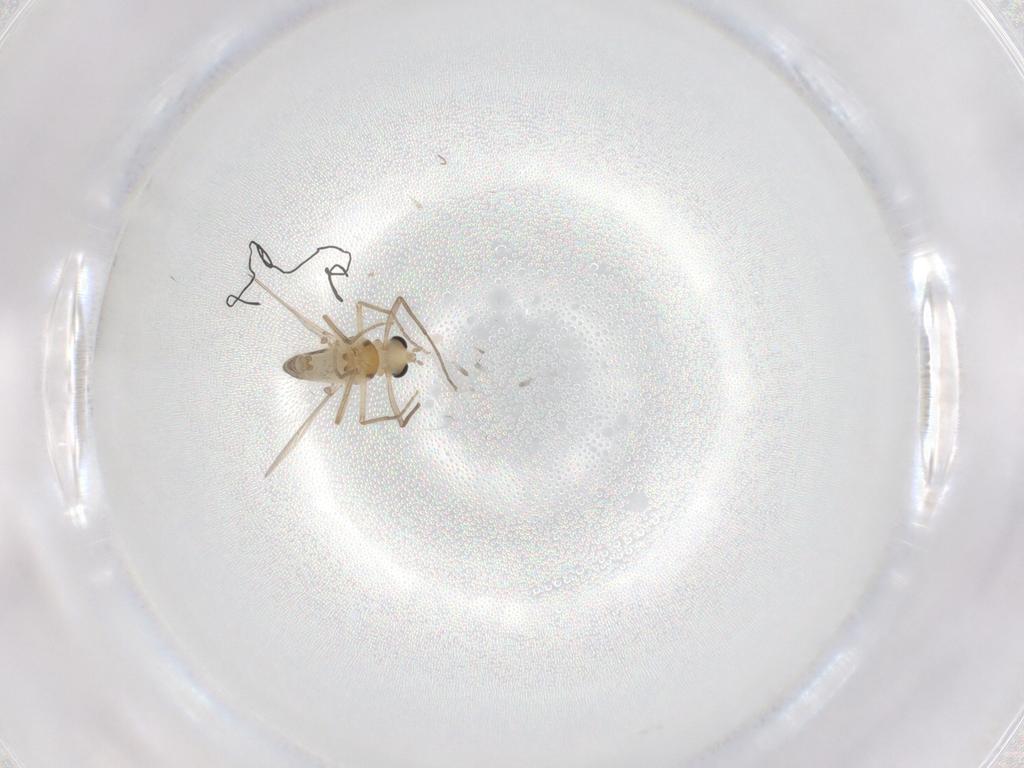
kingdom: Animalia
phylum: Arthropoda
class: Insecta
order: Diptera
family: Chironomidae
